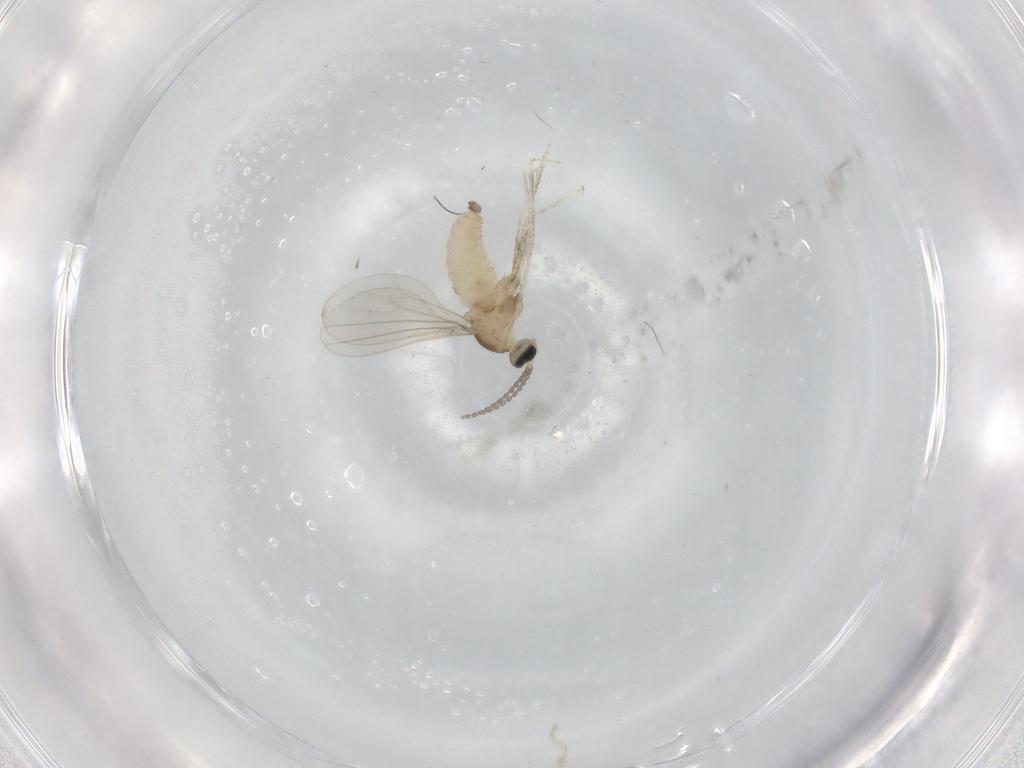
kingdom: Animalia
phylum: Arthropoda
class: Insecta
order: Diptera
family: Cecidomyiidae
